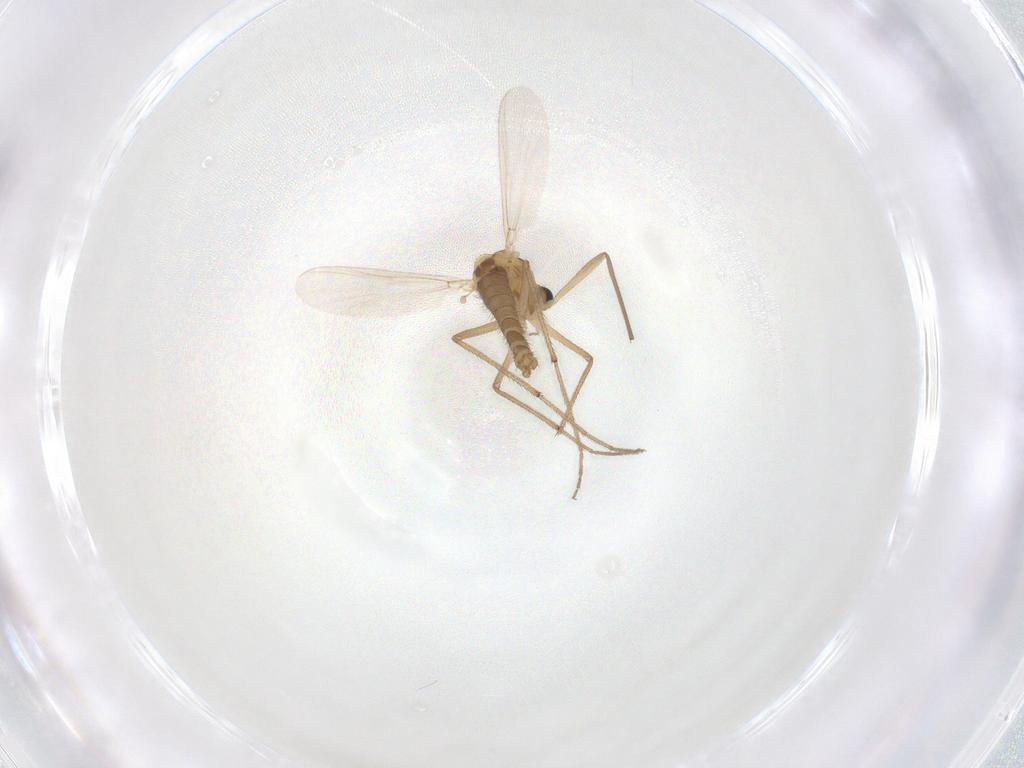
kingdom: Animalia
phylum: Arthropoda
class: Insecta
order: Diptera
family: Chironomidae
